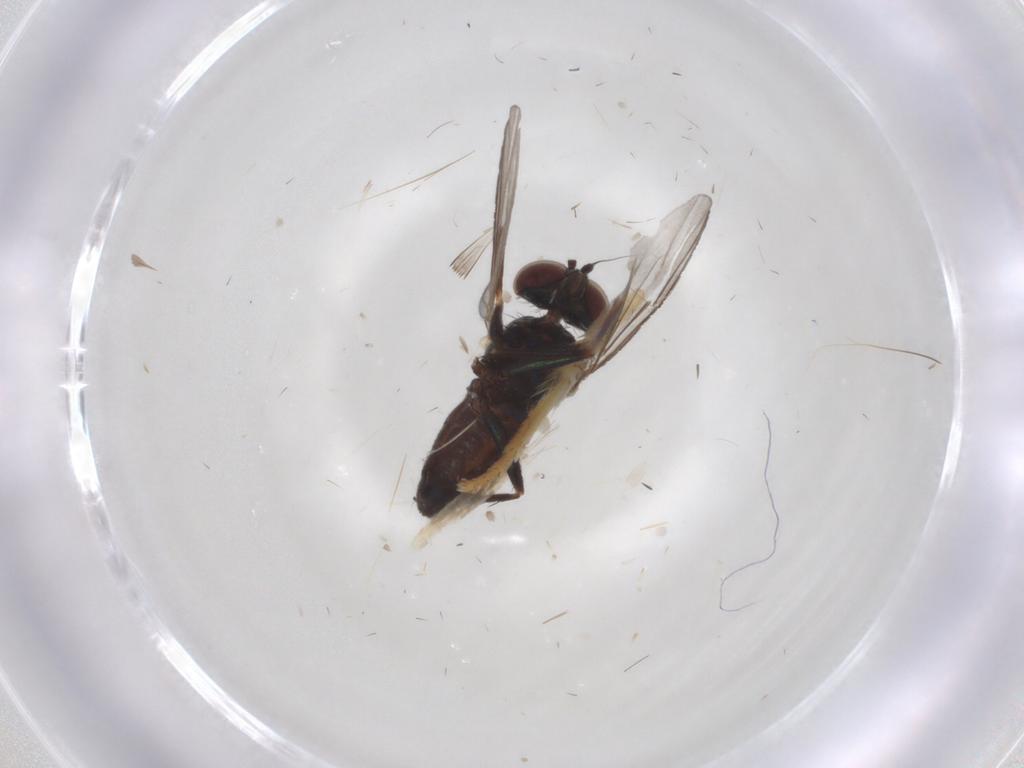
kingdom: Animalia
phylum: Arthropoda
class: Insecta
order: Diptera
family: Dolichopodidae
